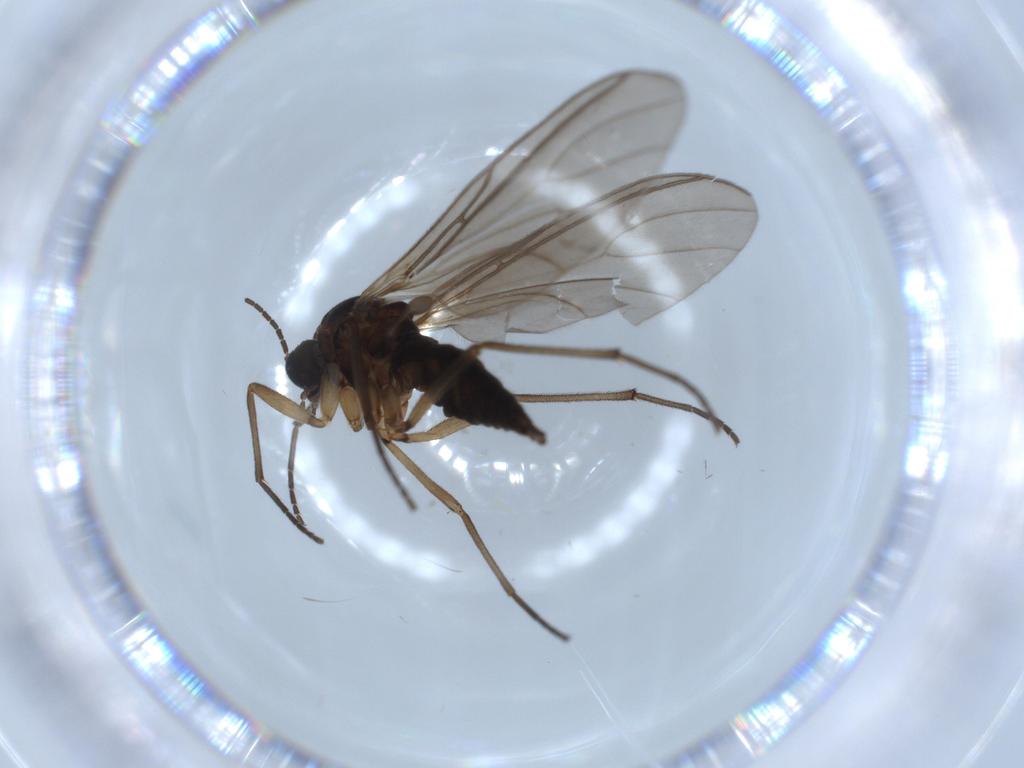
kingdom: Animalia
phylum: Arthropoda
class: Insecta
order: Diptera
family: Sciaridae
